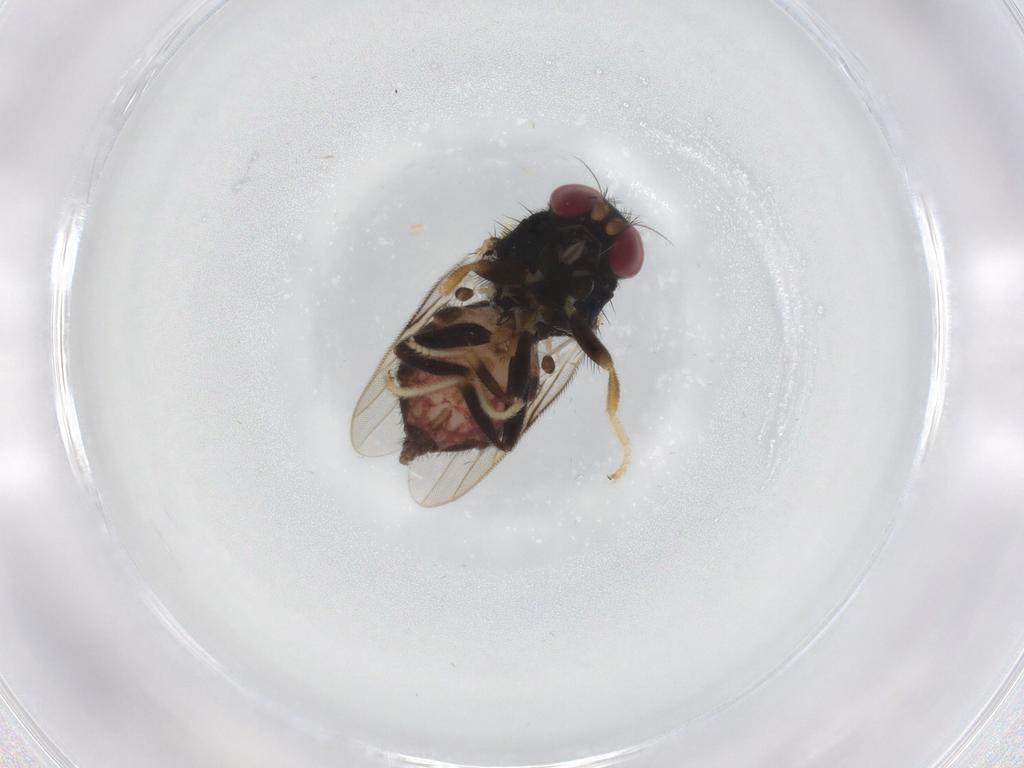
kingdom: Animalia
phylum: Arthropoda
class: Insecta
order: Diptera
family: Chloropidae
